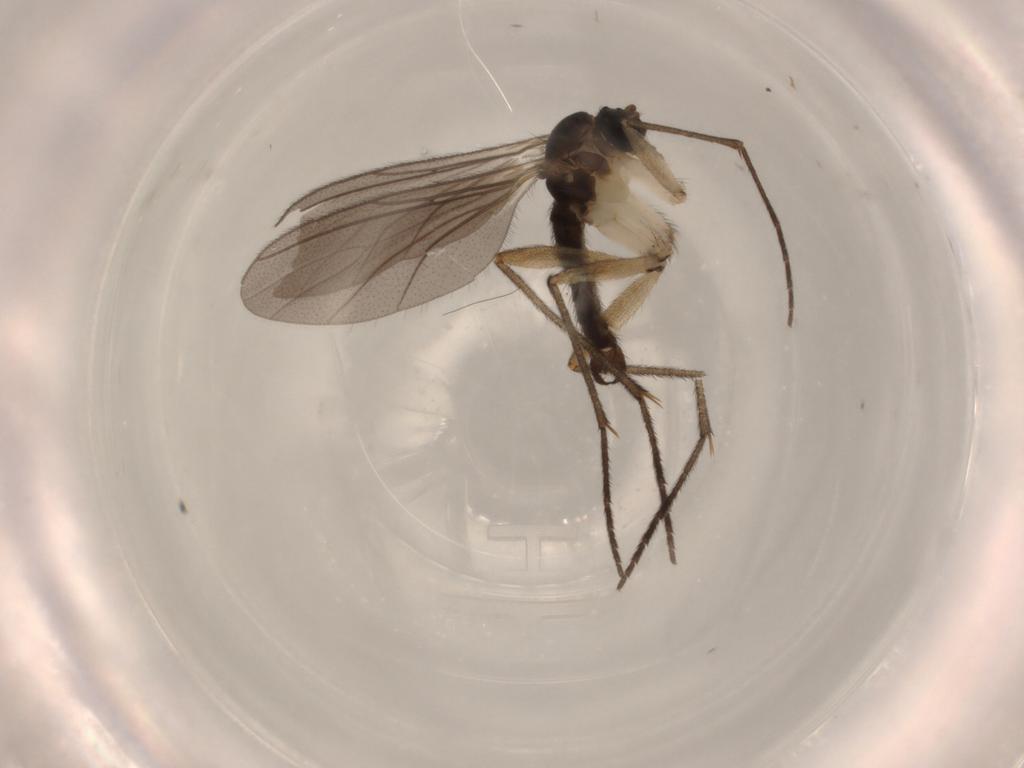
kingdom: Animalia
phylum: Arthropoda
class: Insecta
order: Diptera
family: Sciaridae
